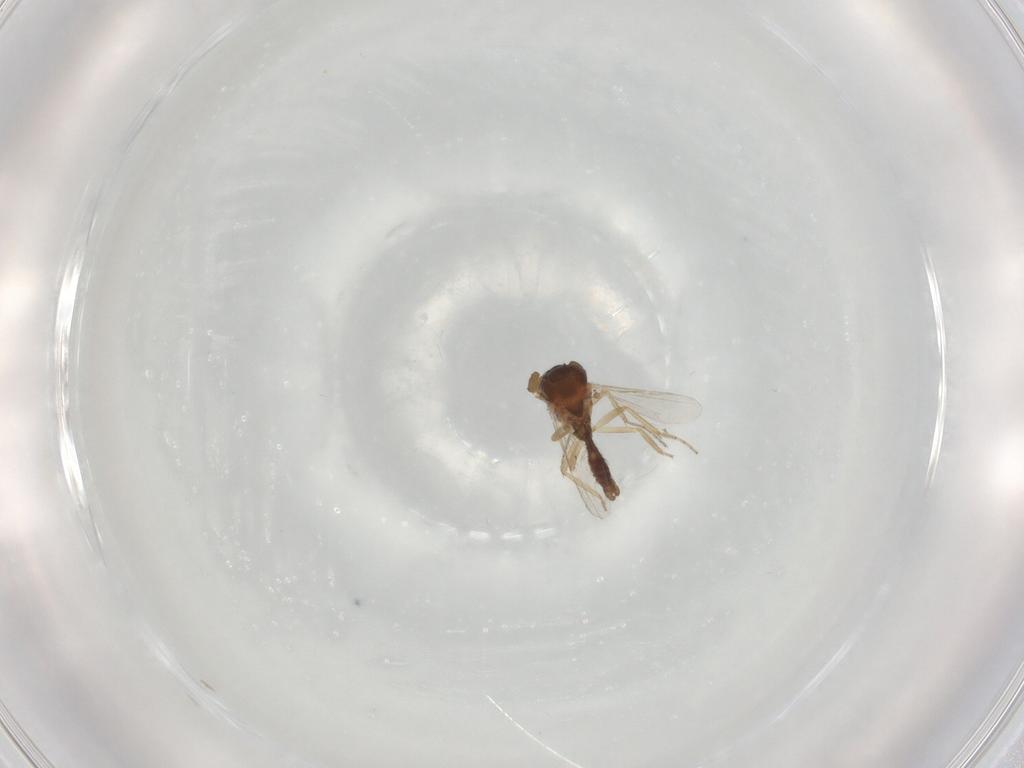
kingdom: Animalia
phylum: Arthropoda
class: Insecta
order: Diptera
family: Ceratopogonidae
